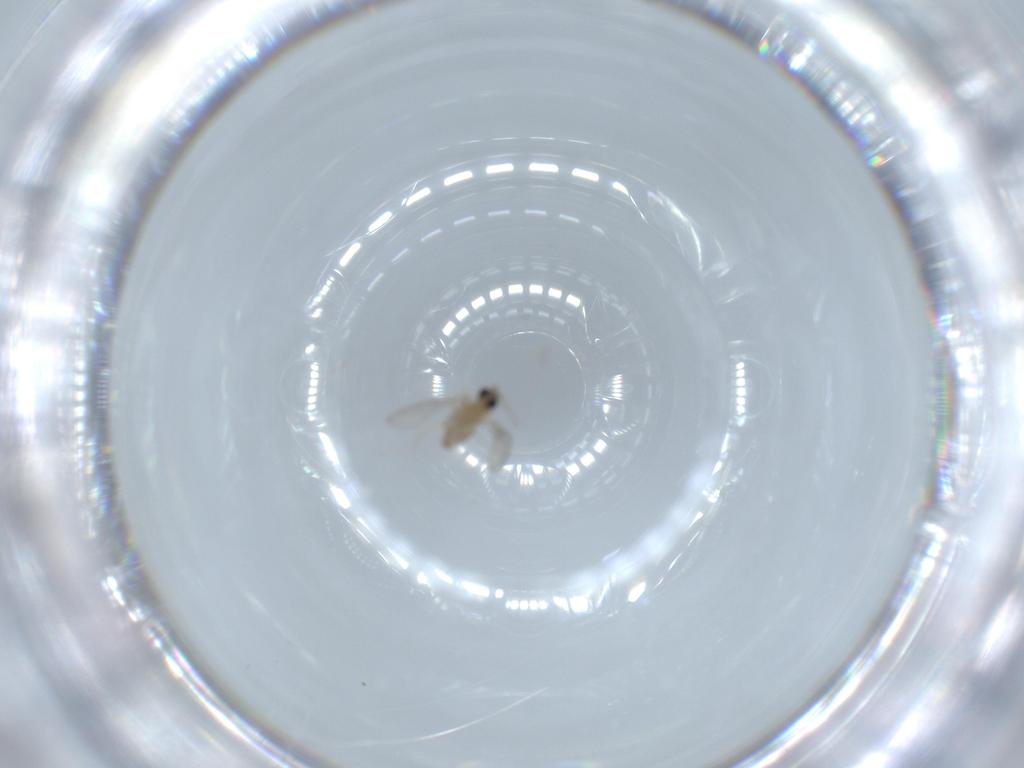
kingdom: Animalia
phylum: Arthropoda
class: Insecta
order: Diptera
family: Cecidomyiidae
